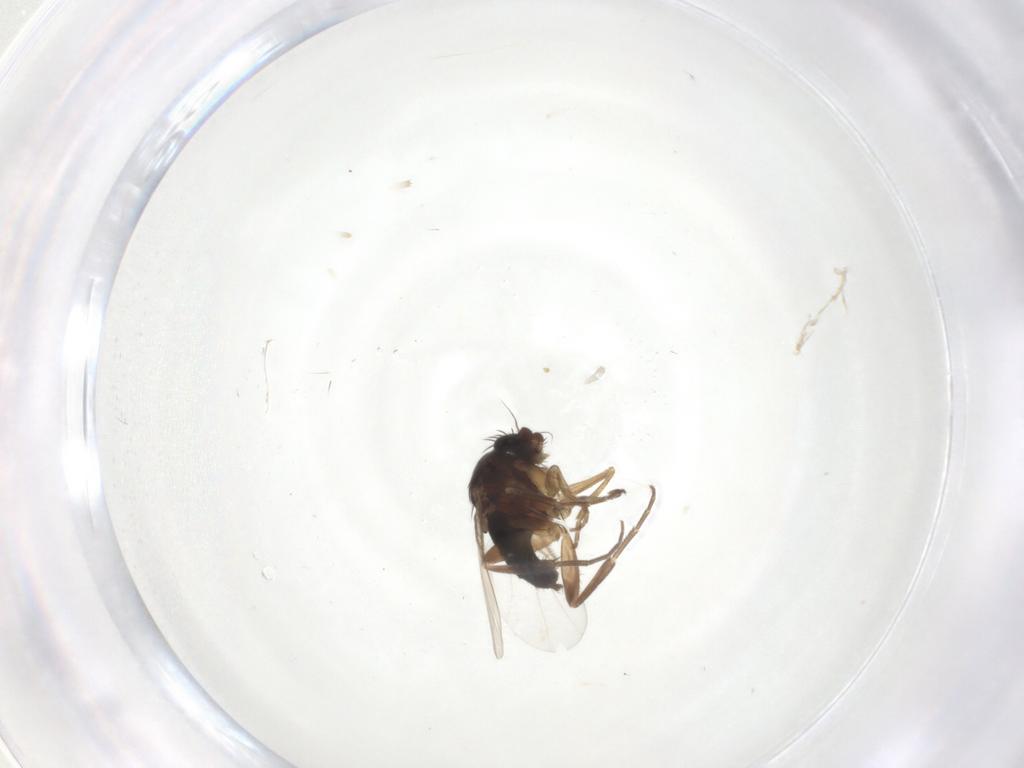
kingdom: Animalia
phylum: Arthropoda
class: Insecta
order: Diptera
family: Phoridae
